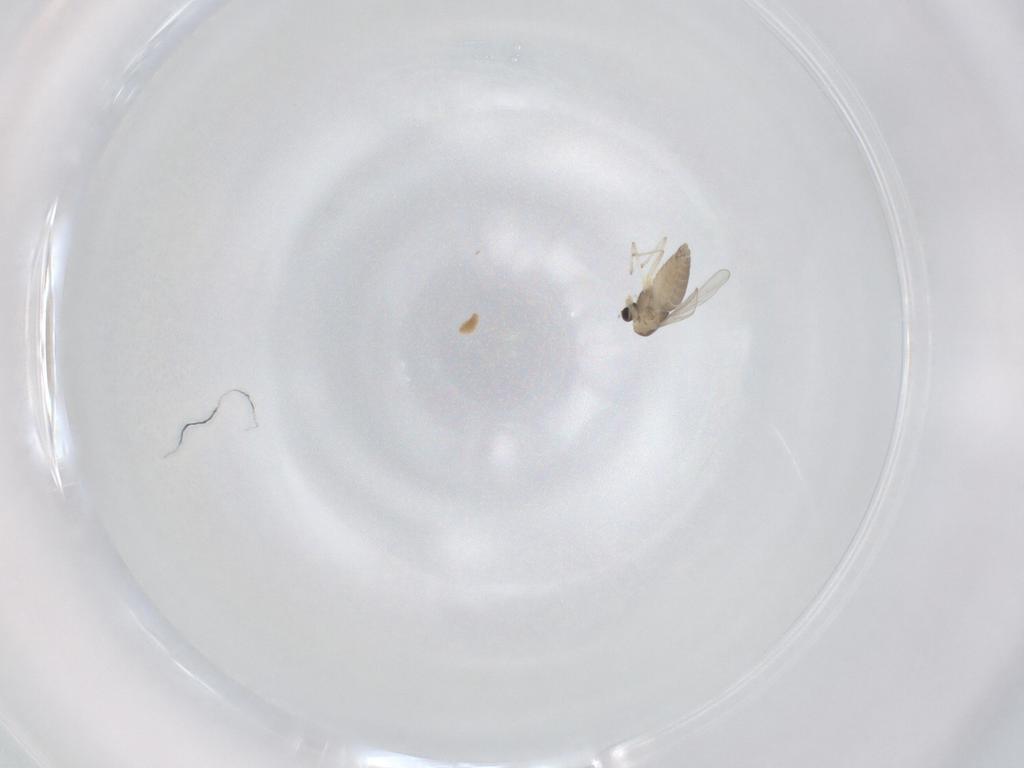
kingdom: Animalia
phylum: Arthropoda
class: Insecta
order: Diptera
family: Chironomidae
